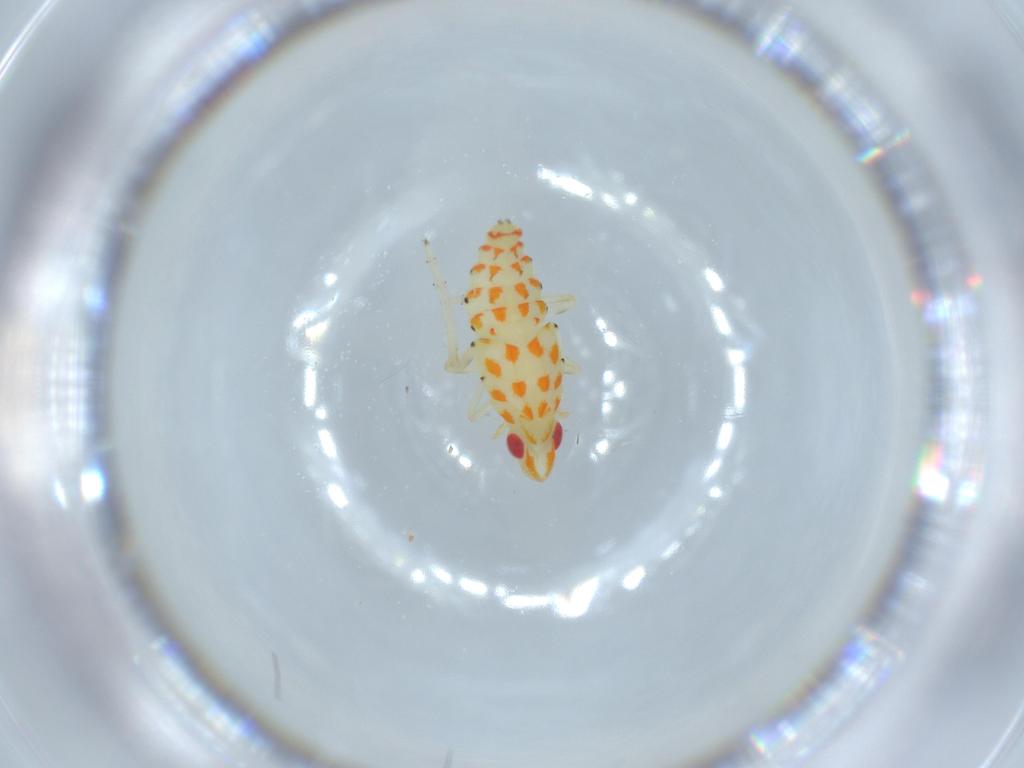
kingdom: Animalia
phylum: Arthropoda
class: Insecta
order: Hemiptera
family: Tropiduchidae
